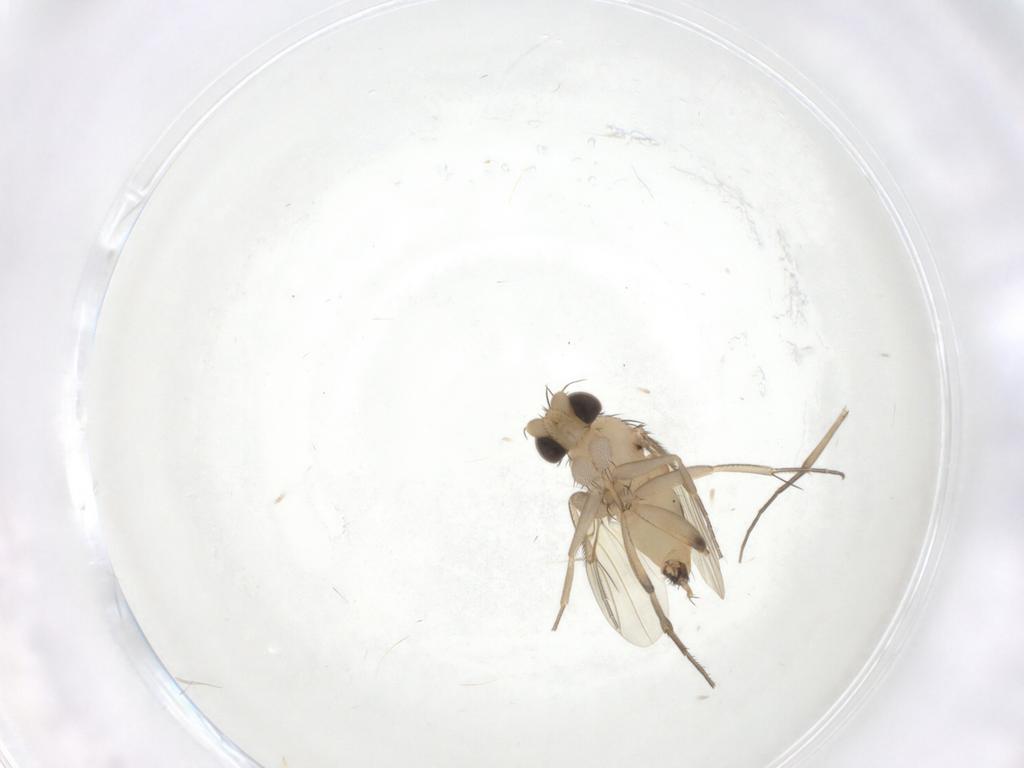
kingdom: Animalia
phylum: Arthropoda
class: Insecta
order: Diptera
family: Phoridae
